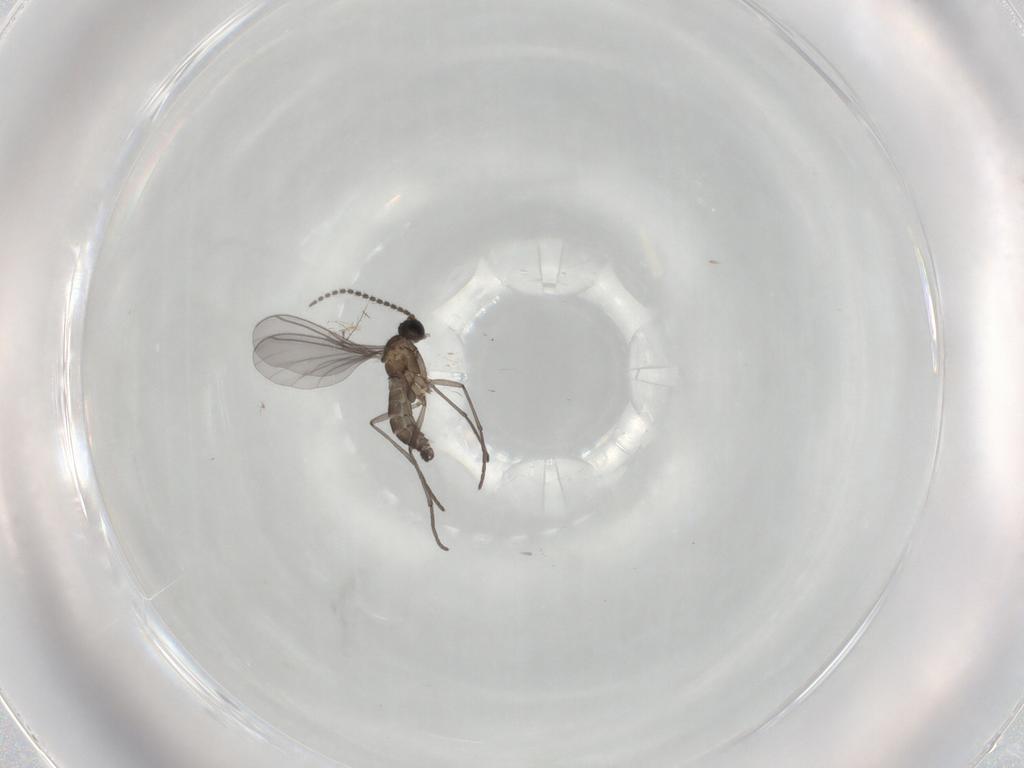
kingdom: Animalia
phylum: Arthropoda
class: Insecta
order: Diptera
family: Sciaridae
